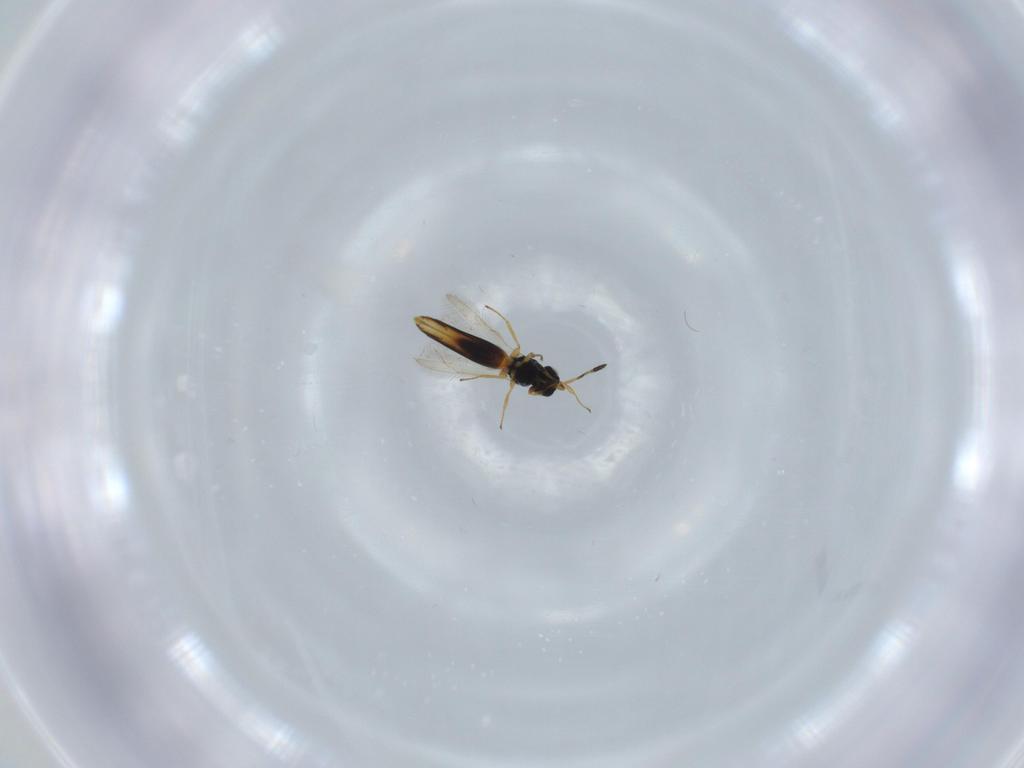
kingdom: Animalia
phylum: Arthropoda
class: Insecta
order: Hymenoptera
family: Scelionidae
